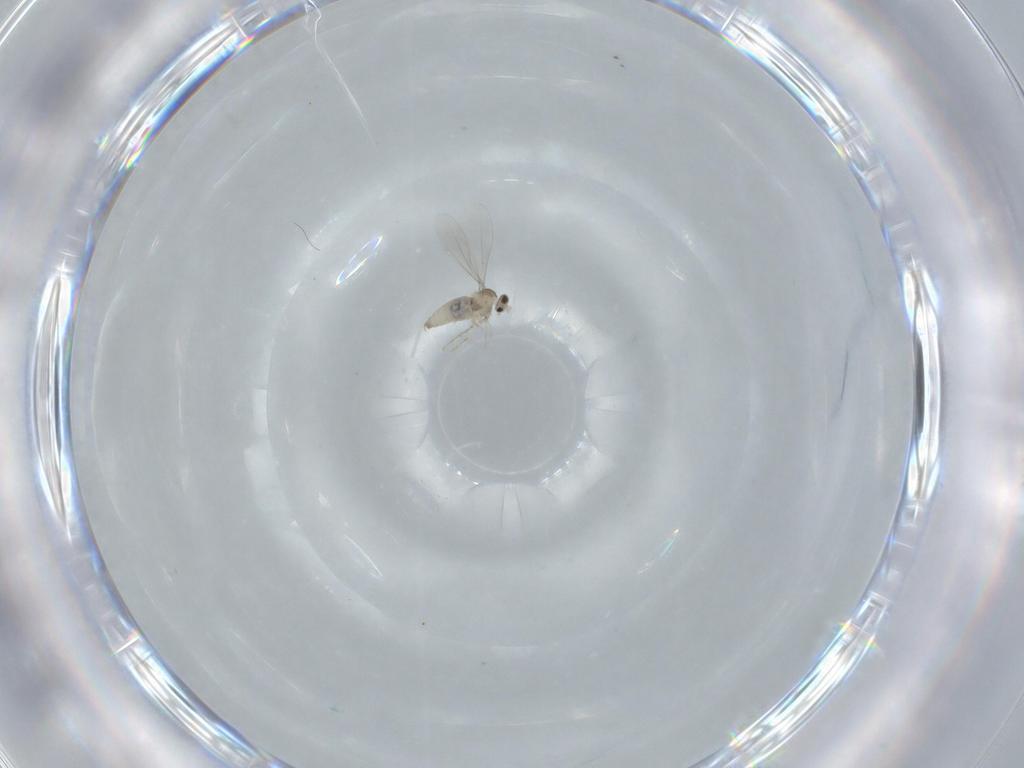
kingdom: Animalia
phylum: Arthropoda
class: Insecta
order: Diptera
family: Cecidomyiidae
